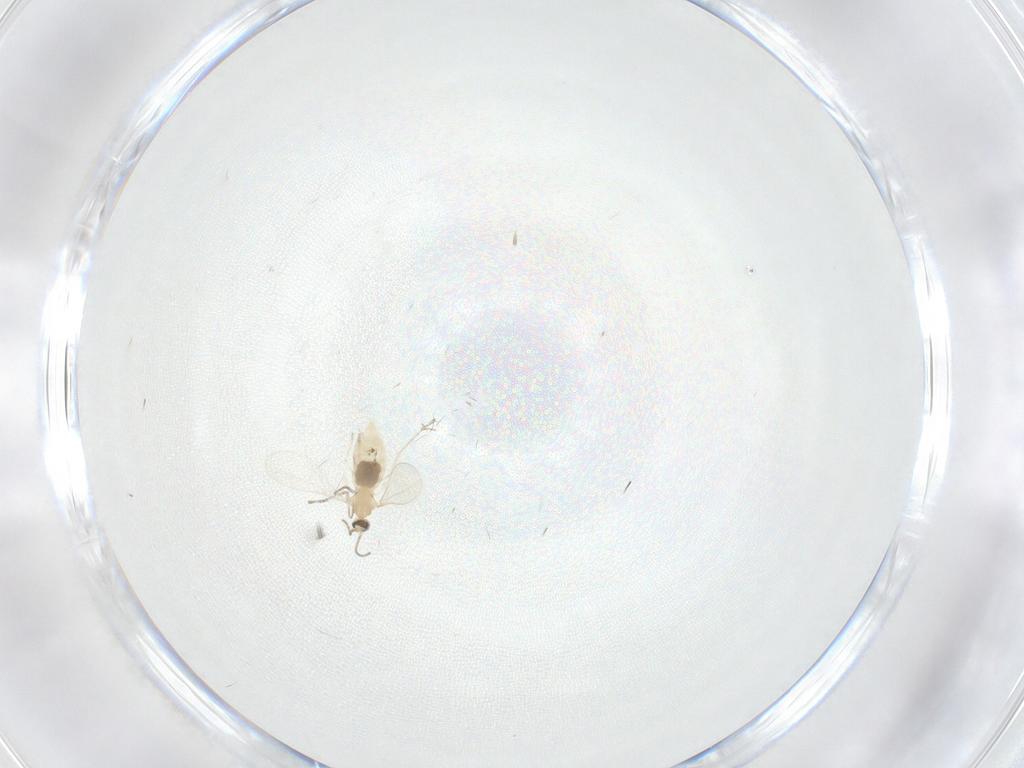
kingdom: Animalia
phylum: Arthropoda
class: Insecta
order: Diptera
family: Cecidomyiidae
